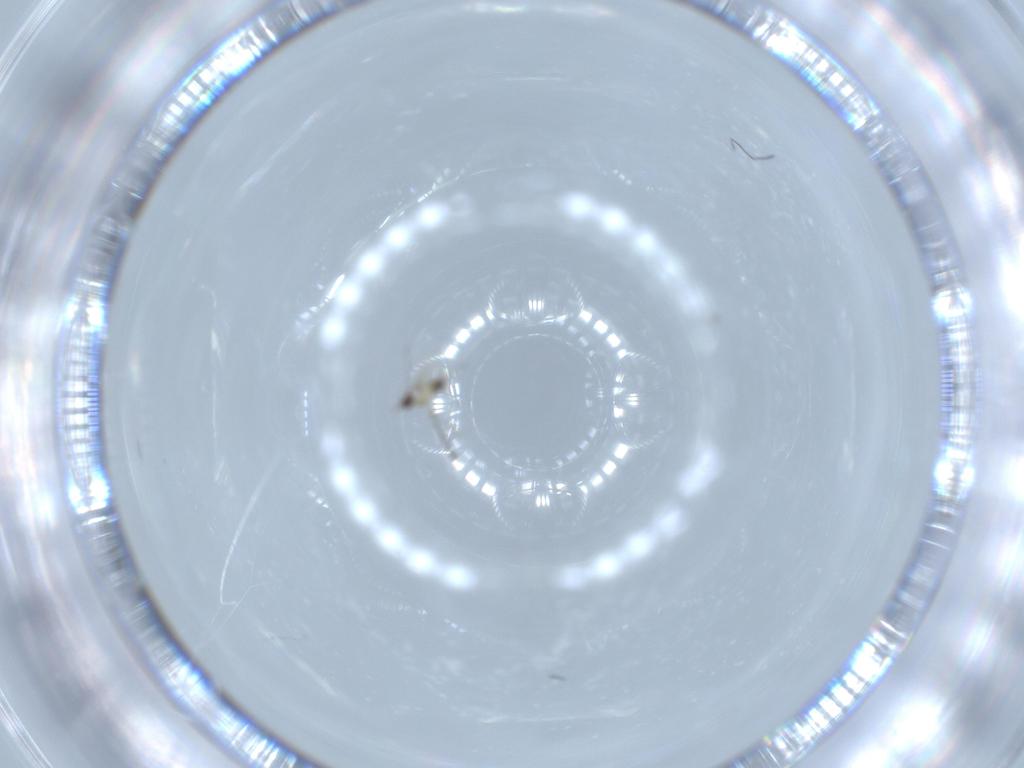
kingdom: Animalia
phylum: Arthropoda
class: Insecta
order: Hymenoptera
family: Mymaridae
